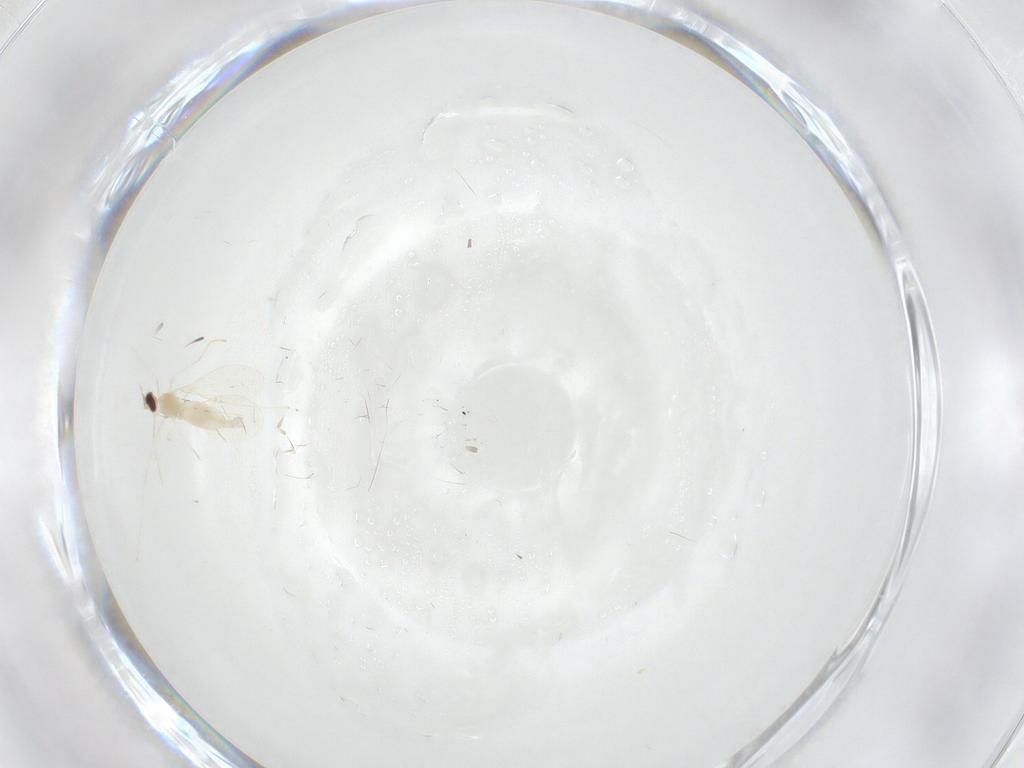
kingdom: Animalia
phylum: Arthropoda
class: Insecta
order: Diptera
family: Cecidomyiidae
